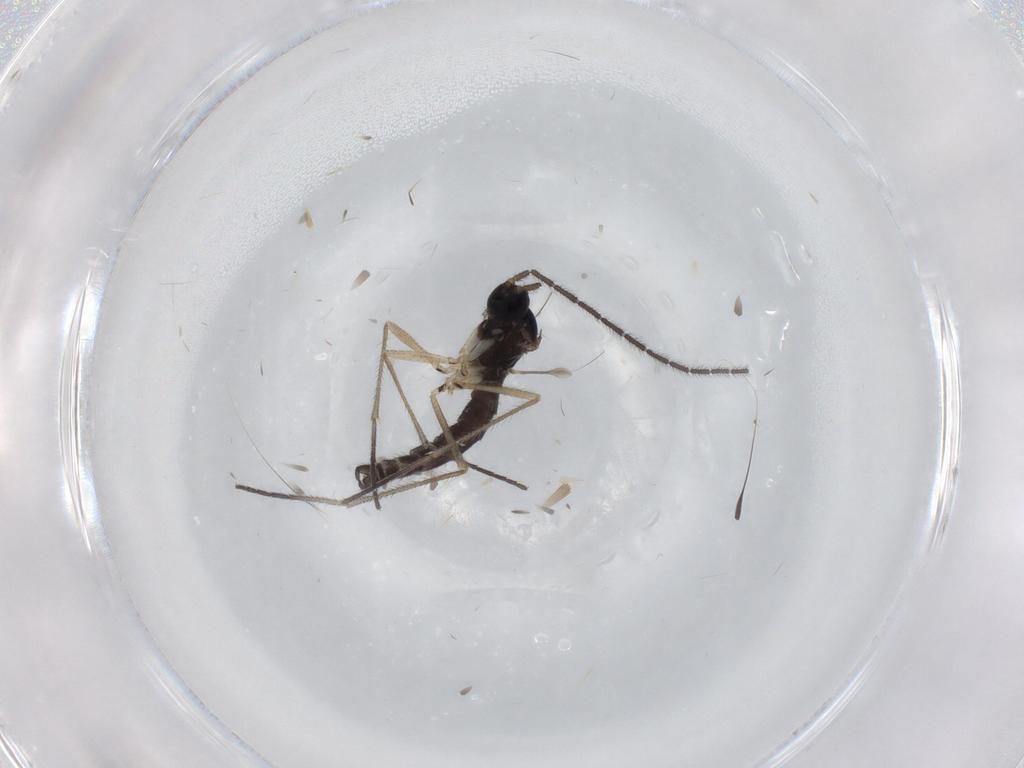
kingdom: Animalia
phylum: Arthropoda
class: Insecta
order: Diptera
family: Sciaridae
